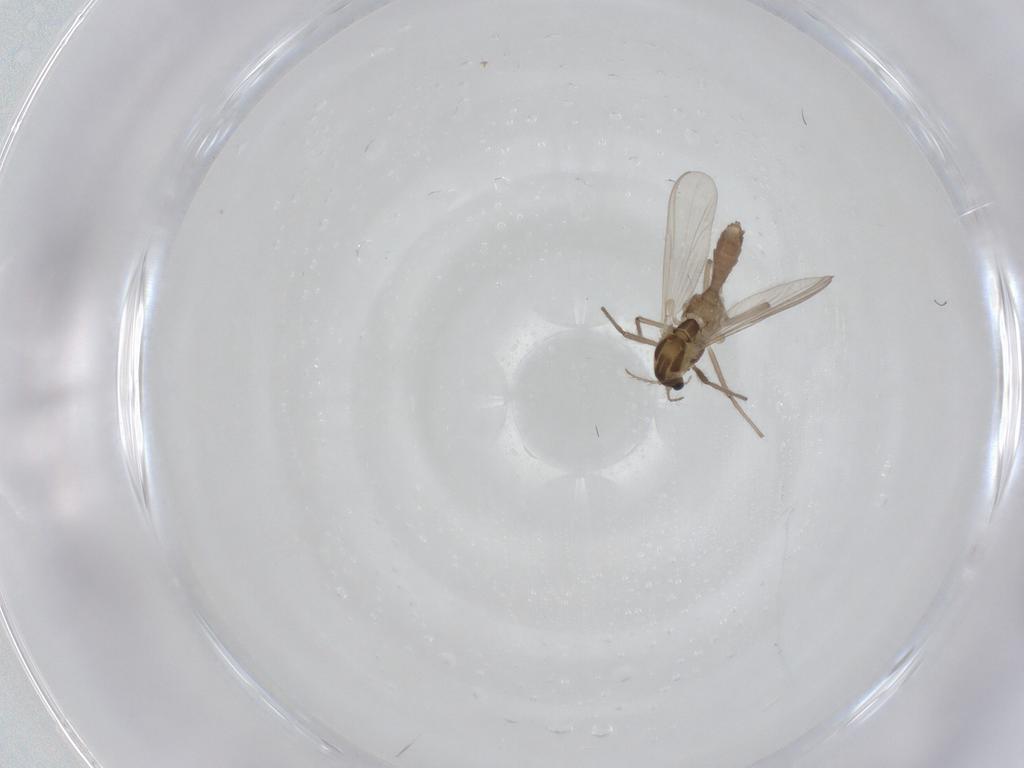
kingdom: Animalia
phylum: Arthropoda
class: Insecta
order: Diptera
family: Chironomidae
